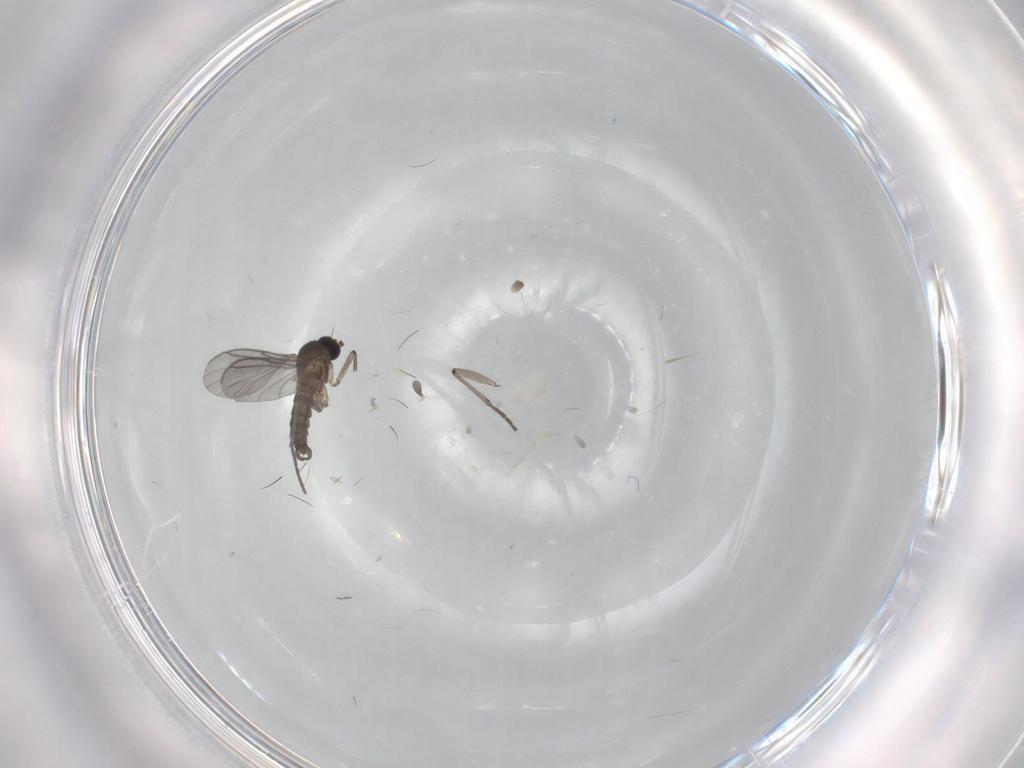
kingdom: Animalia
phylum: Arthropoda
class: Insecta
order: Diptera
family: Sciaridae
